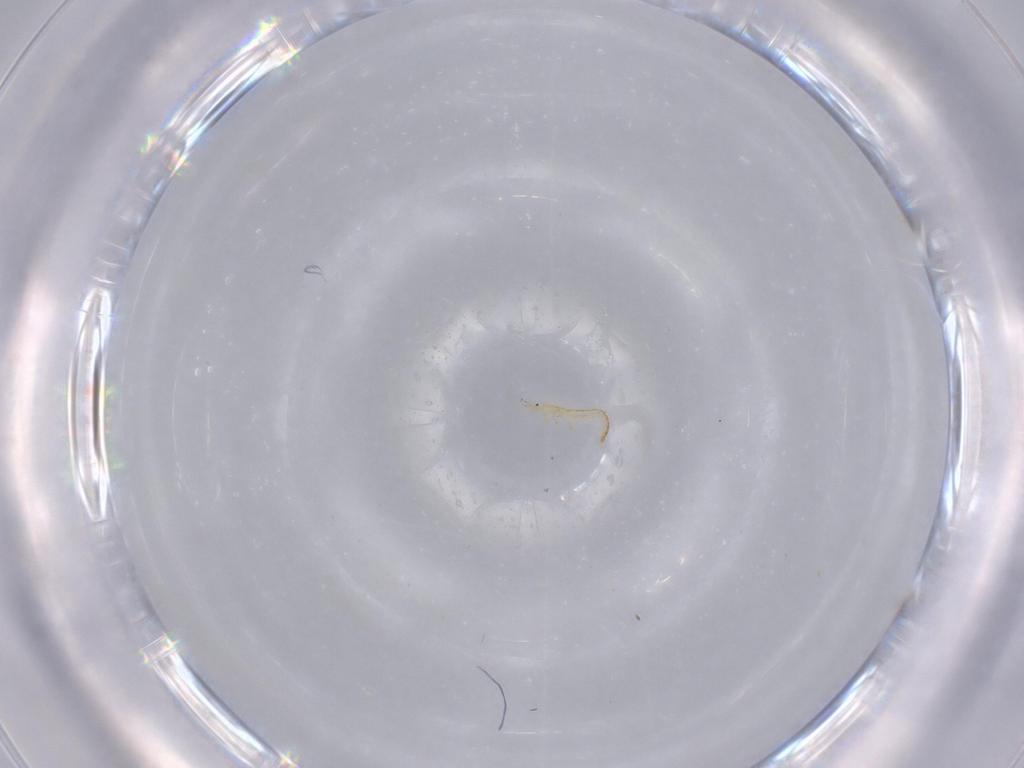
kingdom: Animalia
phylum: Arthropoda
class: Insecta
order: Neuroptera
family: Mantispidae
